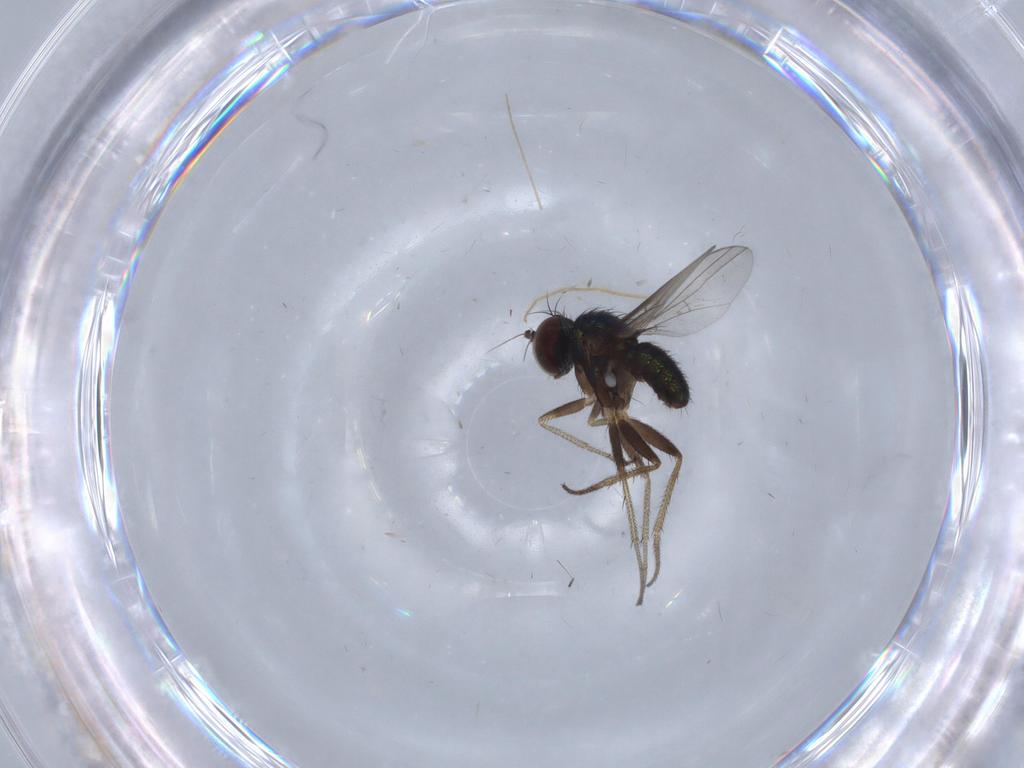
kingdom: Animalia
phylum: Arthropoda
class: Insecta
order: Diptera
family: Chironomidae
